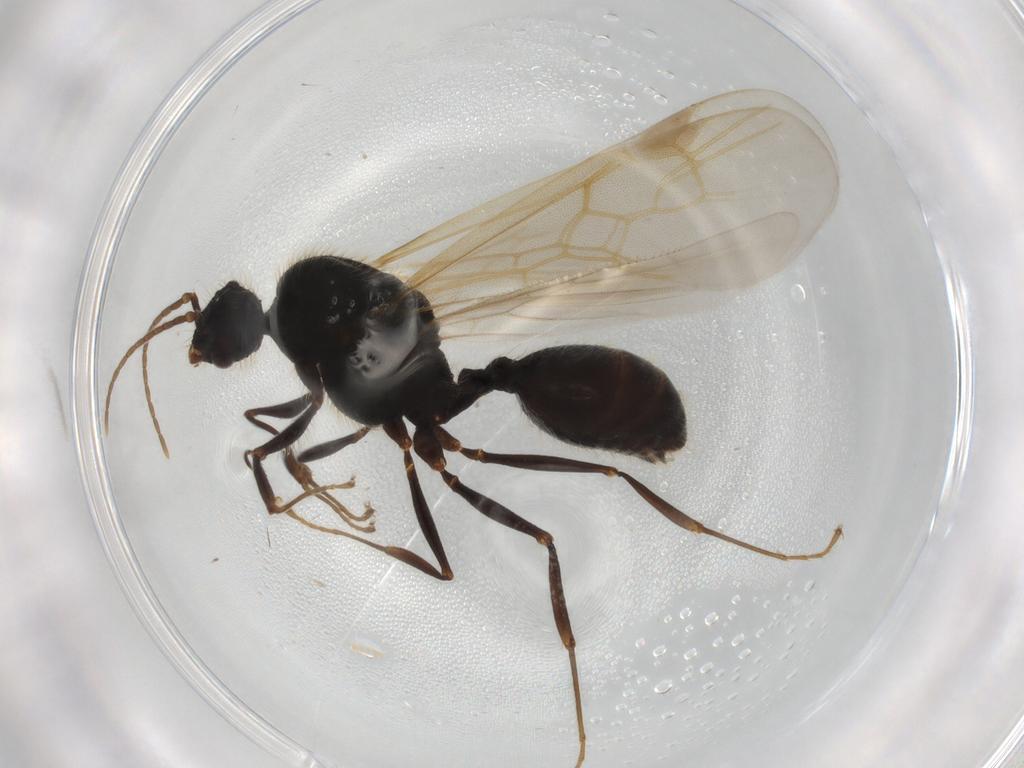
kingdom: Animalia
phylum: Arthropoda
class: Insecta
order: Hymenoptera
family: Formicidae
